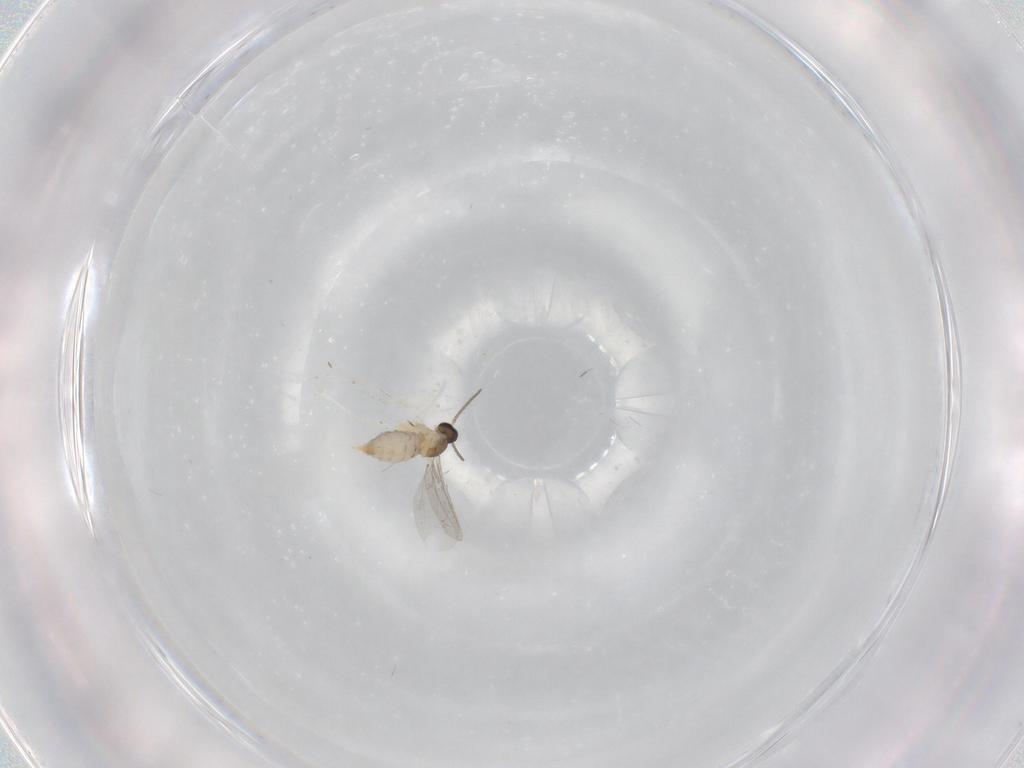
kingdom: Animalia
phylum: Arthropoda
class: Insecta
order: Diptera
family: Cecidomyiidae
